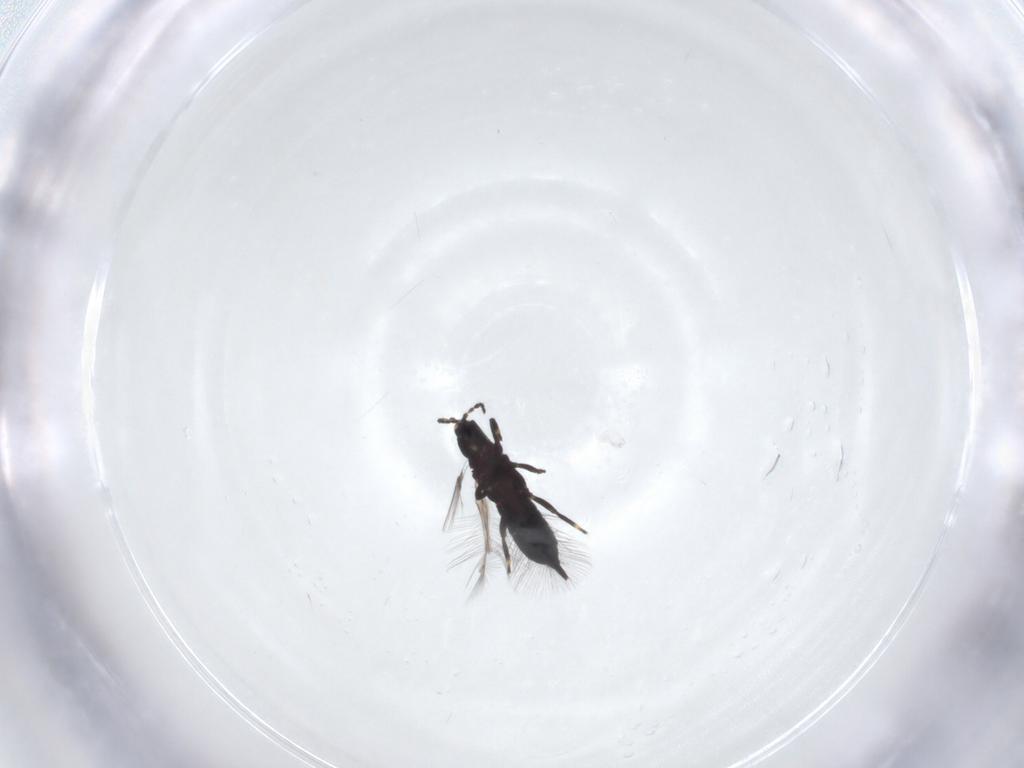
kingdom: Animalia
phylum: Arthropoda
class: Insecta
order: Thysanoptera
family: Phlaeothripidae
